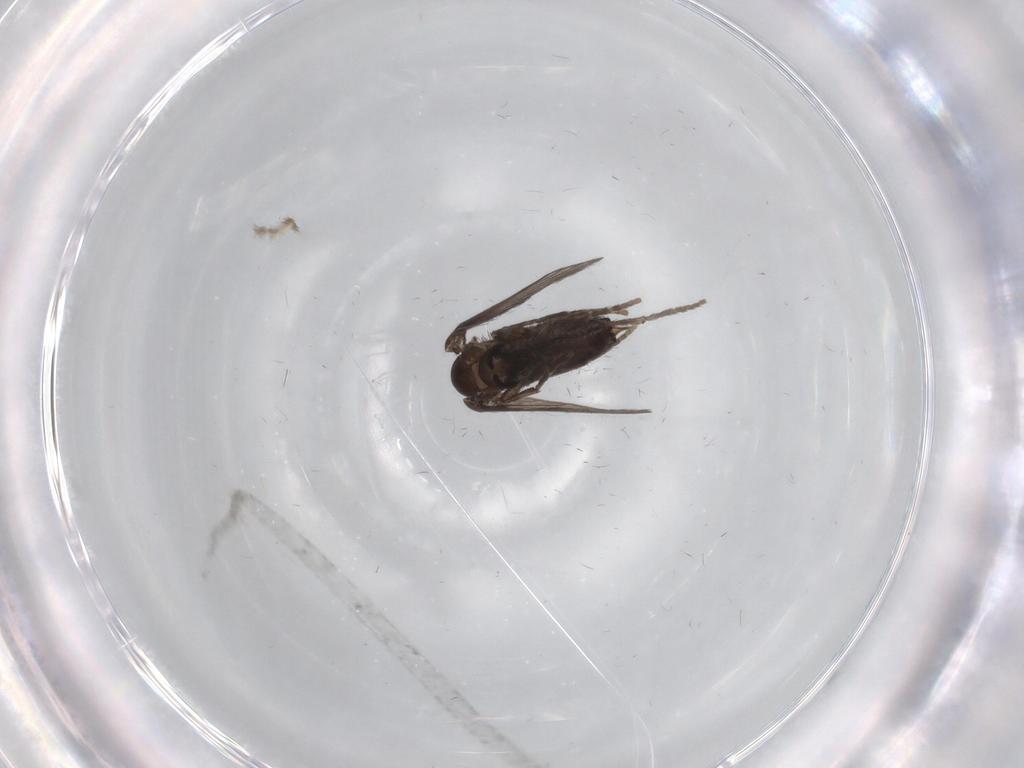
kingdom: Animalia
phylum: Arthropoda
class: Insecta
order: Diptera
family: Psychodidae
